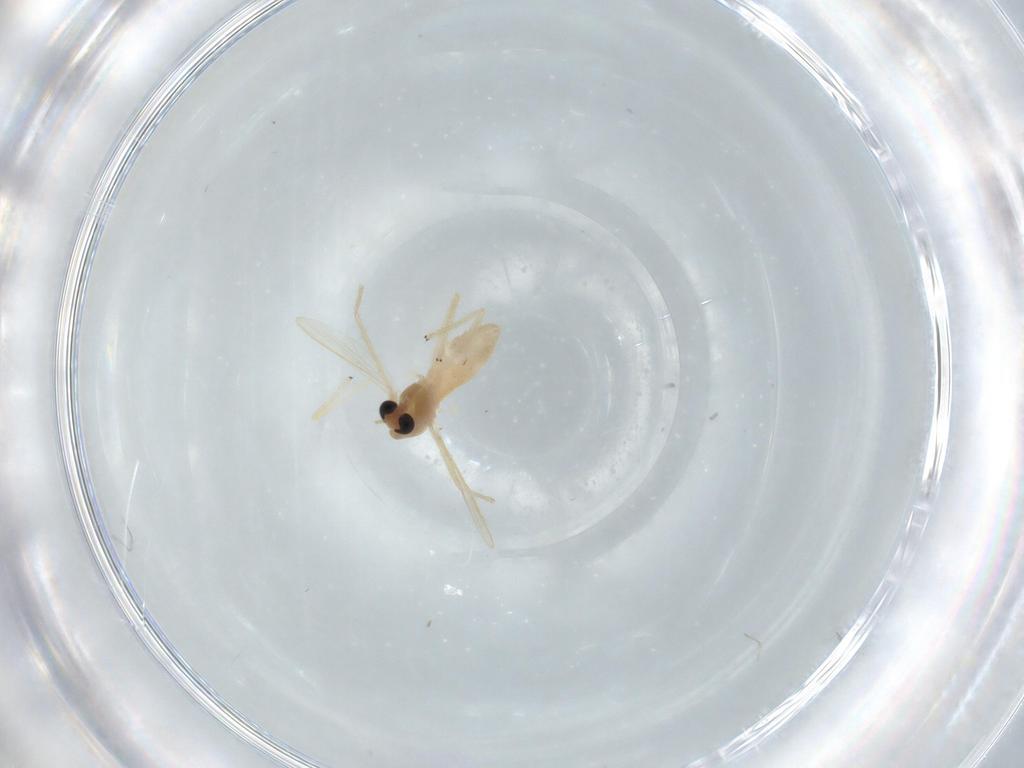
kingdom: Animalia
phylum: Arthropoda
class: Insecta
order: Diptera
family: Chironomidae
